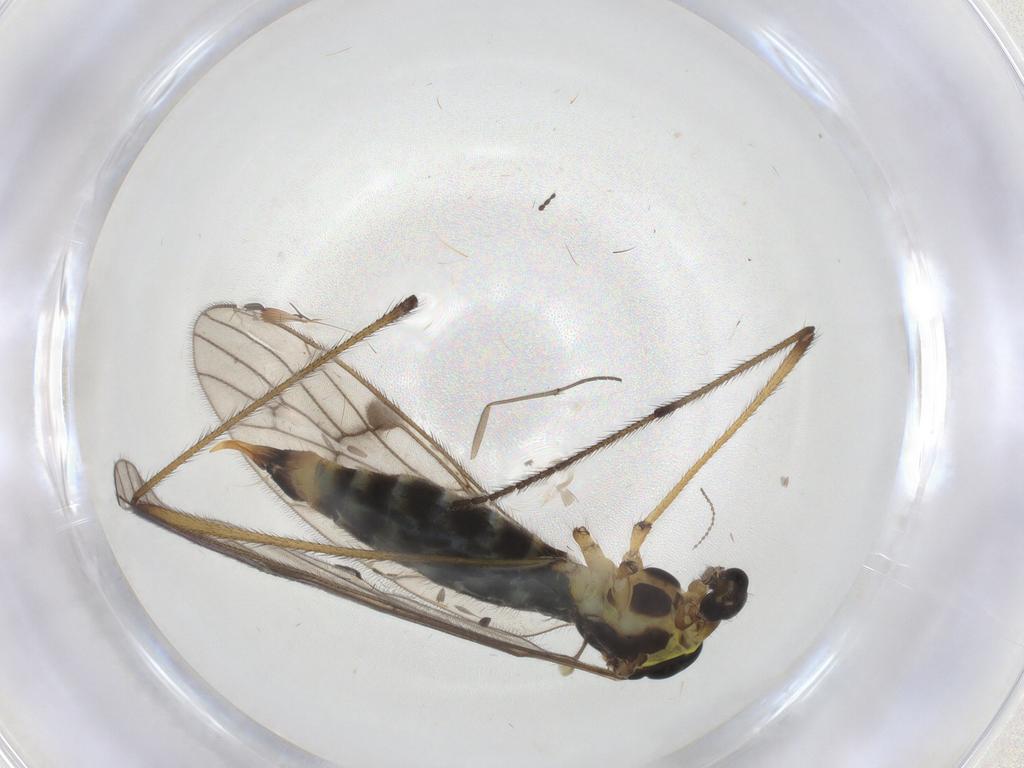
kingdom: Animalia
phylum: Arthropoda
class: Insecta
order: Diptera
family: Limoniidae
